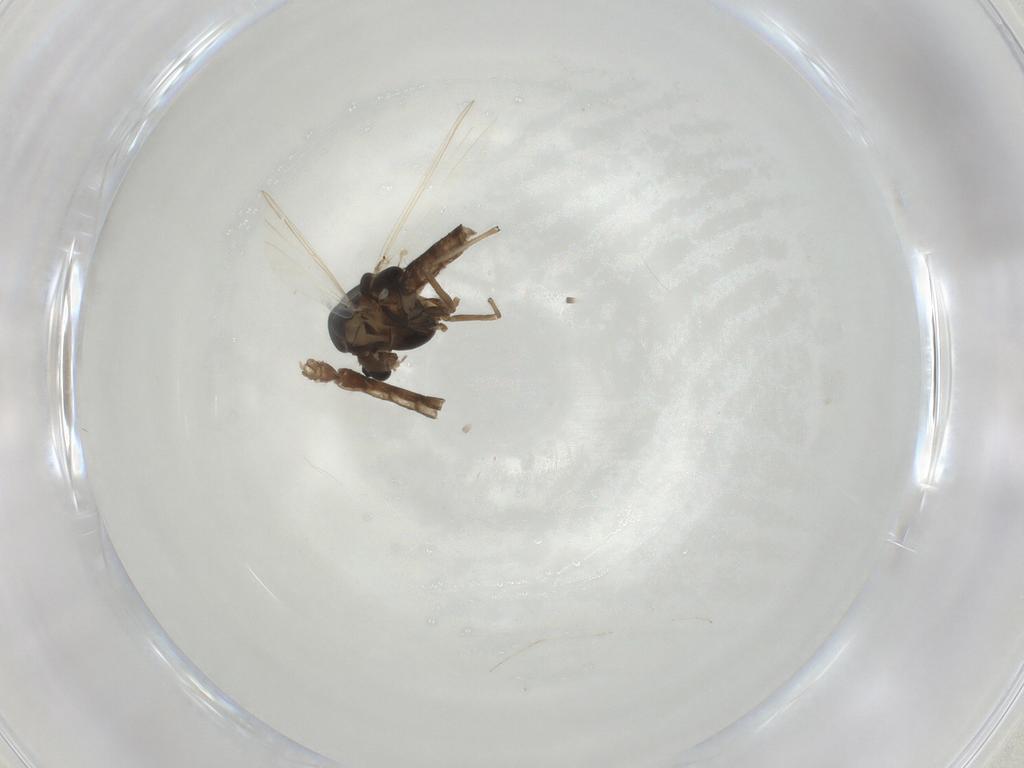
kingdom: Animalia
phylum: Arthropoda
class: Insecta
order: Diptera
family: Chironomidae
